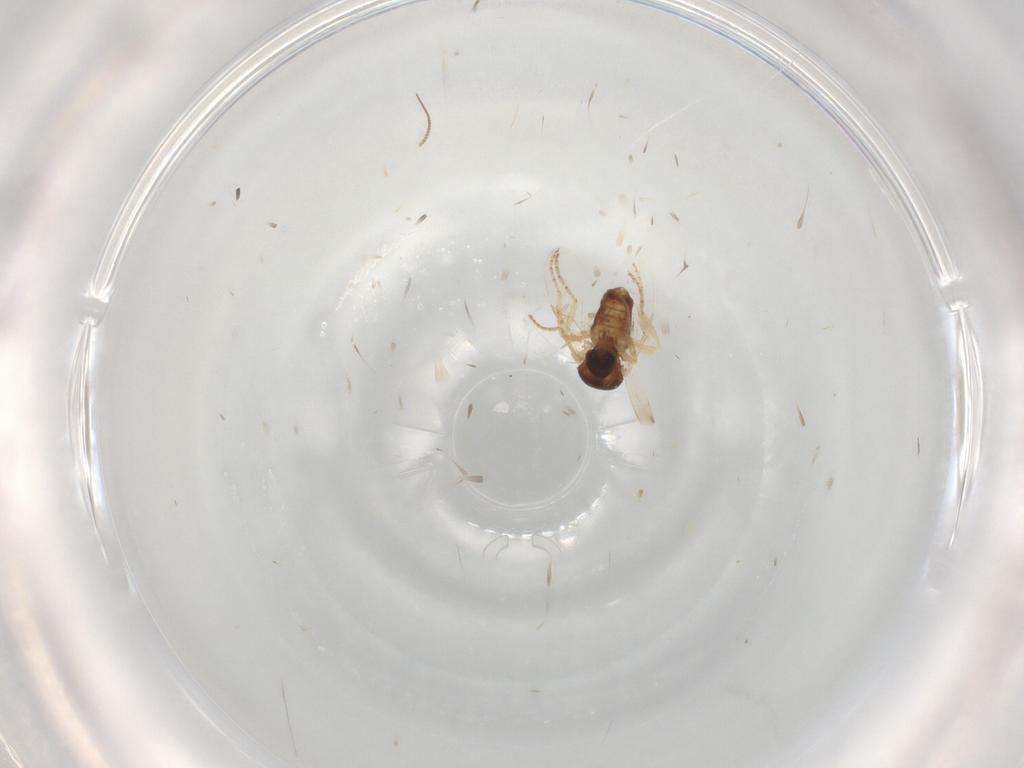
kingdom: Animalia
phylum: Arthropoda
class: Insecta
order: Diptera
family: Ceratopogonidae
